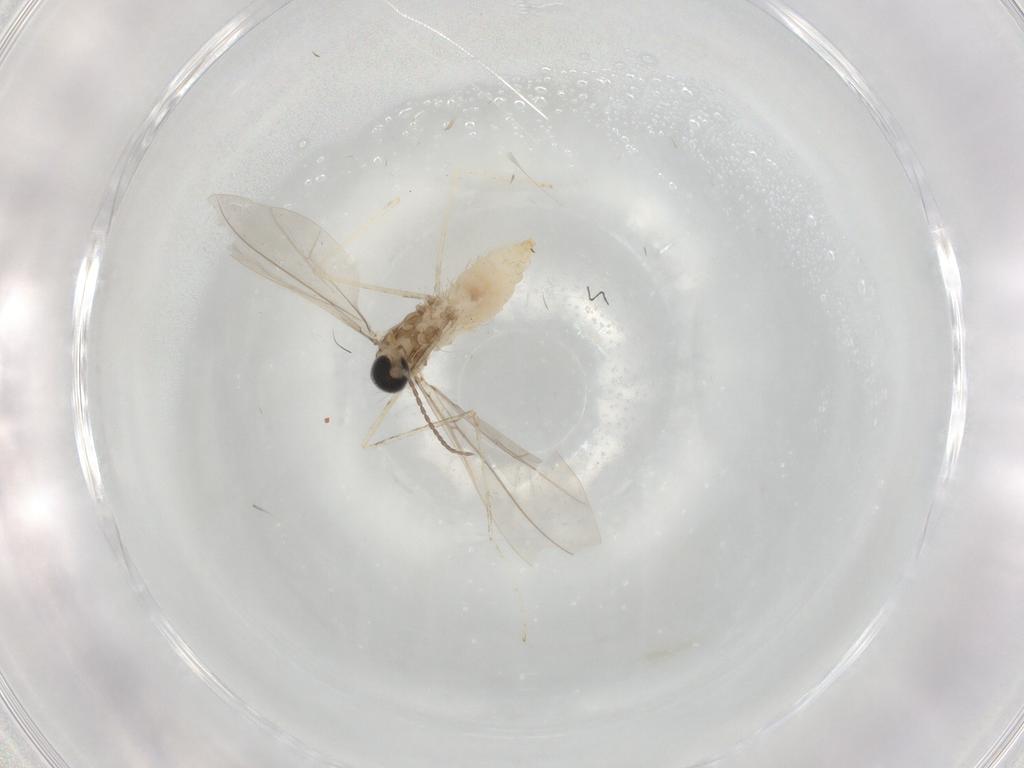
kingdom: Animalia
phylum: Arthropoda
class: Insecta
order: Diptera
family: Cecidomyiidae
